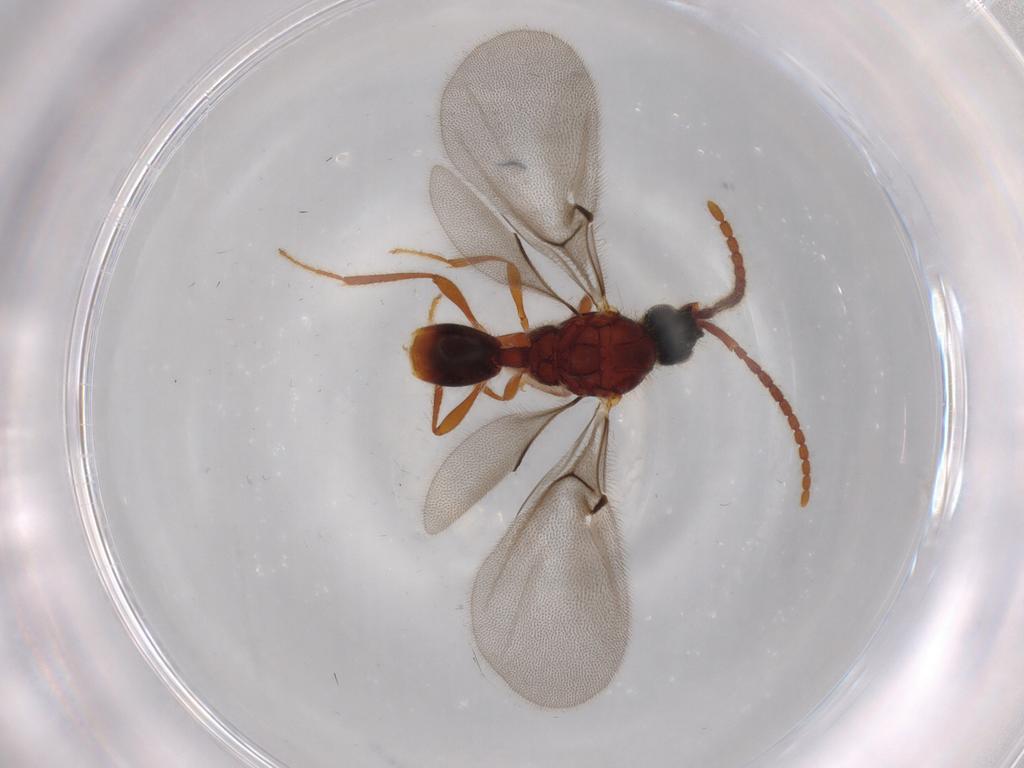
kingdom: Animalia
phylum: Arthropoda
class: Insecta
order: Hymenoptera
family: Diapriidae
